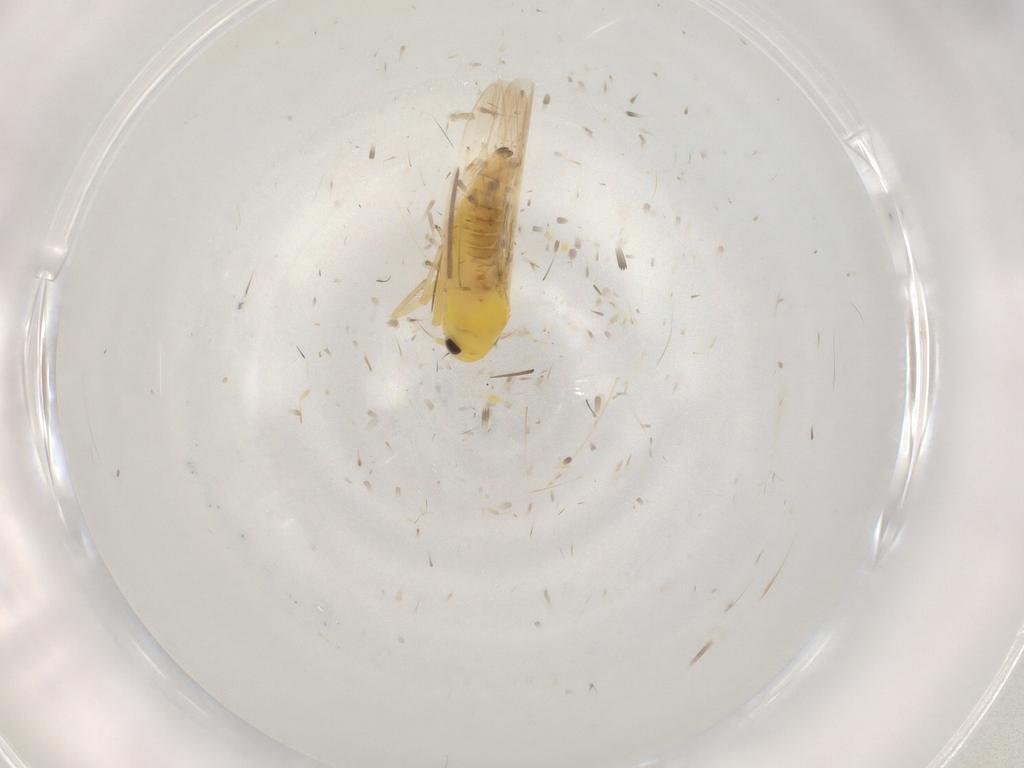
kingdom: Animalia
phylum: Arthropoda
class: Insecta
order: Hemiptera
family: Cicadellidae
